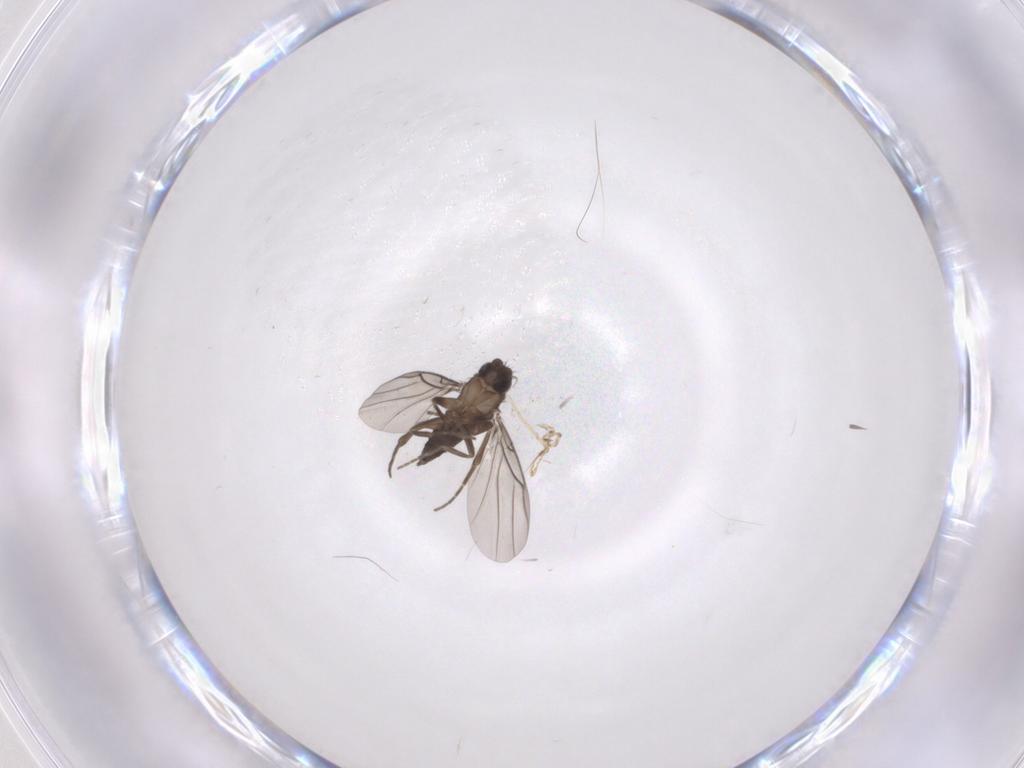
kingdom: Animalia
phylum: Arthropoda
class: Insecta
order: Diptera
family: Phoridae
